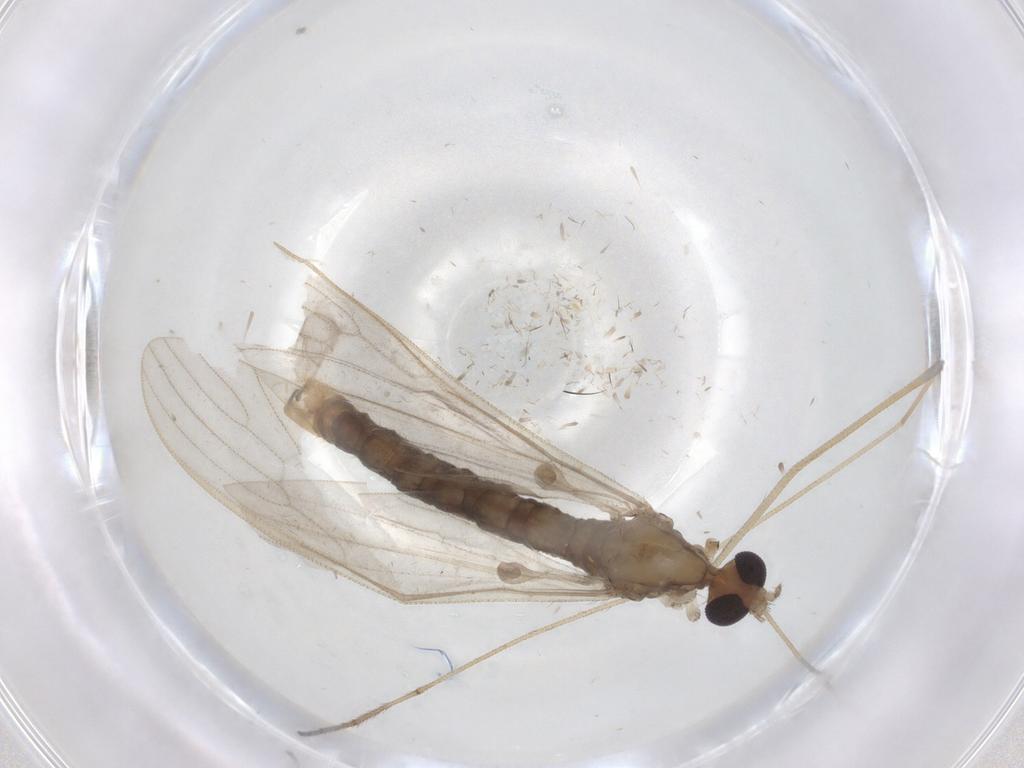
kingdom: Animalia
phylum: Arthropoda
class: Insecta
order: Diptera
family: Limoniidae
